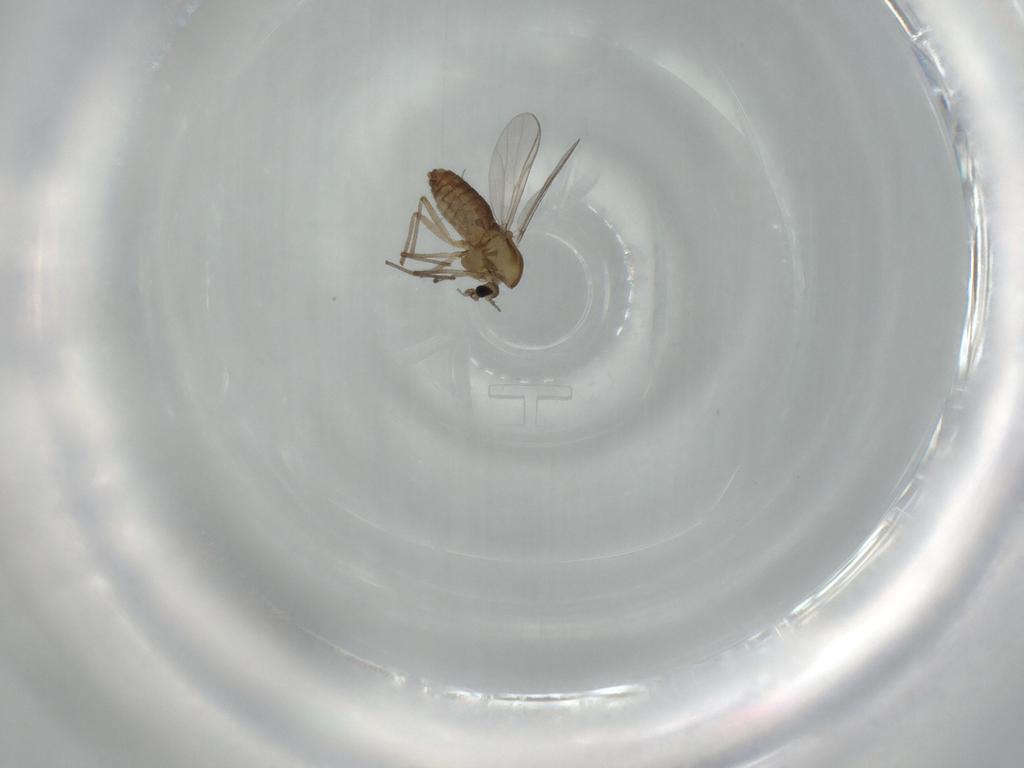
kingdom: Animalia
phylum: Arthropoda
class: Insecta
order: Diptera
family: Chironomidae
